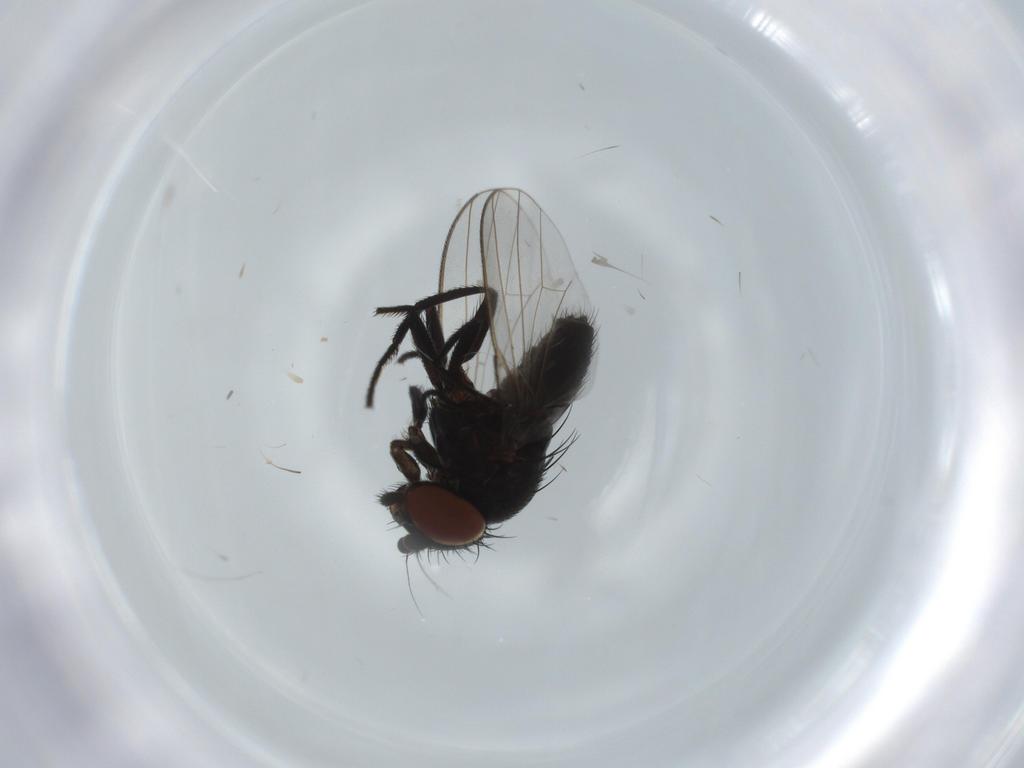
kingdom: Animalia
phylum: Arthropoda
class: Insecta
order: Diptera
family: Milichiidae
